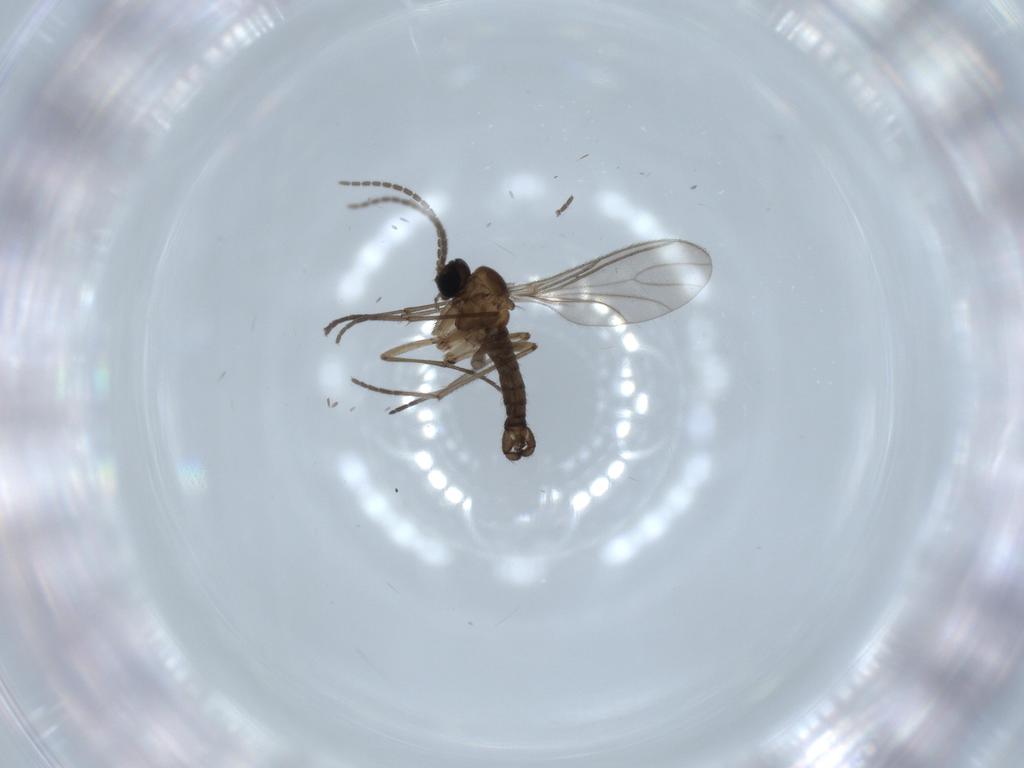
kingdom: Animalia
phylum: Arthropoda
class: Insecta
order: Diptera
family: Sciaridae
